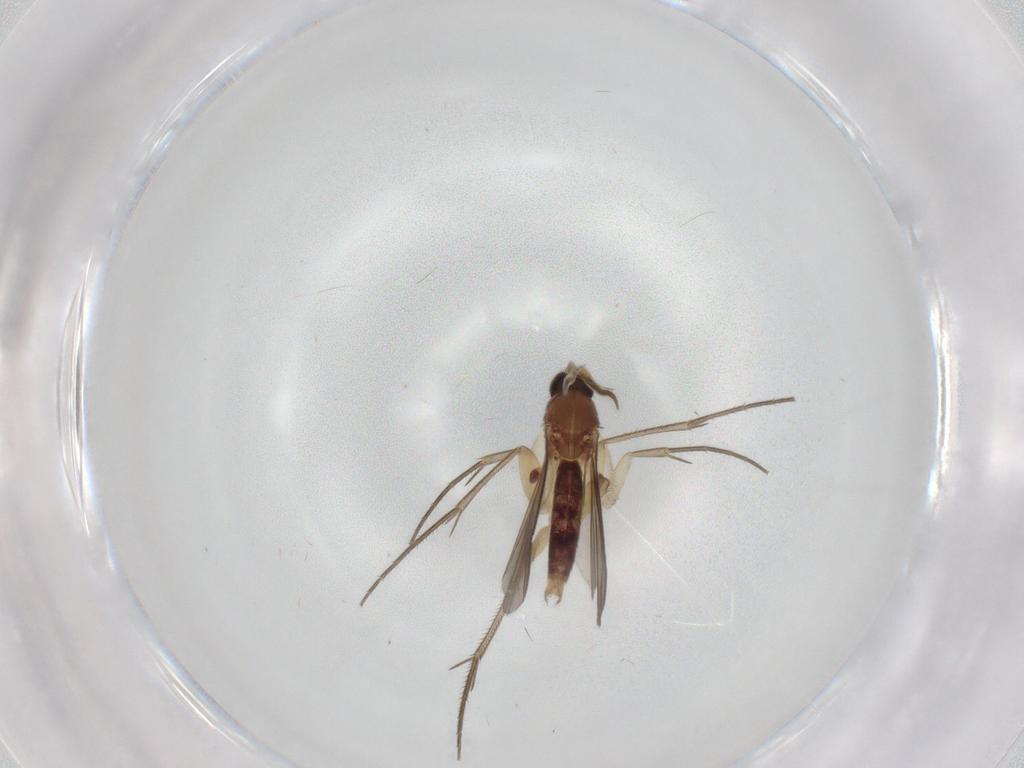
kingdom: Animalia
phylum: Arthropoda
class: Insecta
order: Diptera
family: Mycetophilidae
